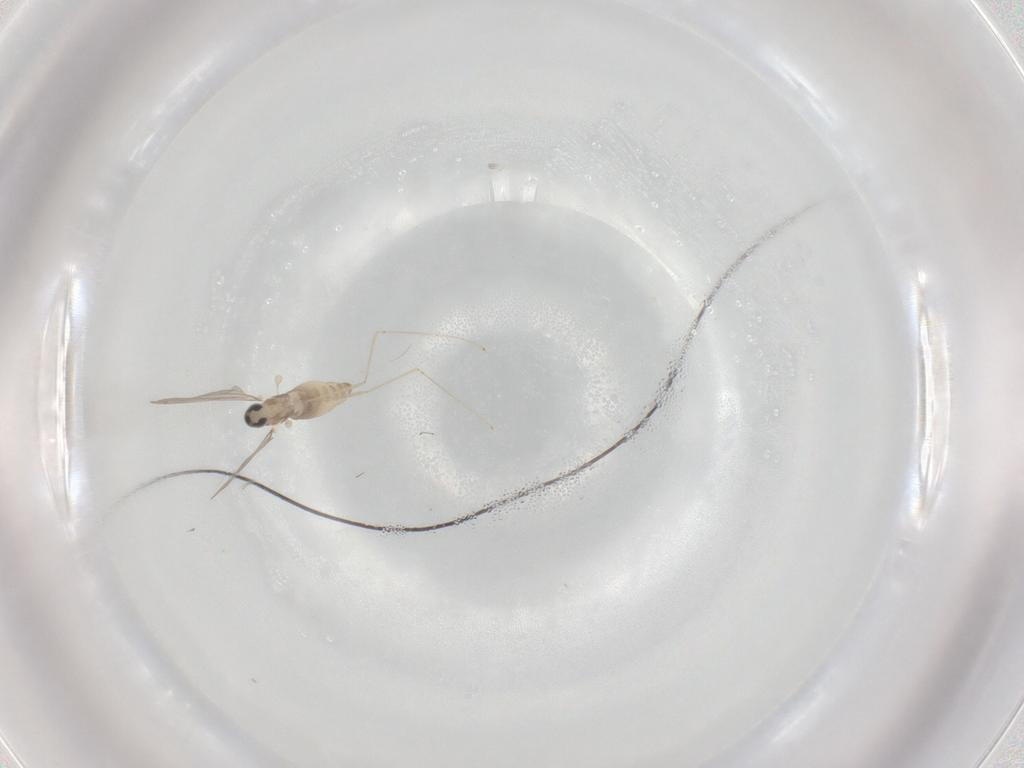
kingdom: Animalia
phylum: Arthropoda
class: Insecta
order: Diptera
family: Cecidomyiidae
